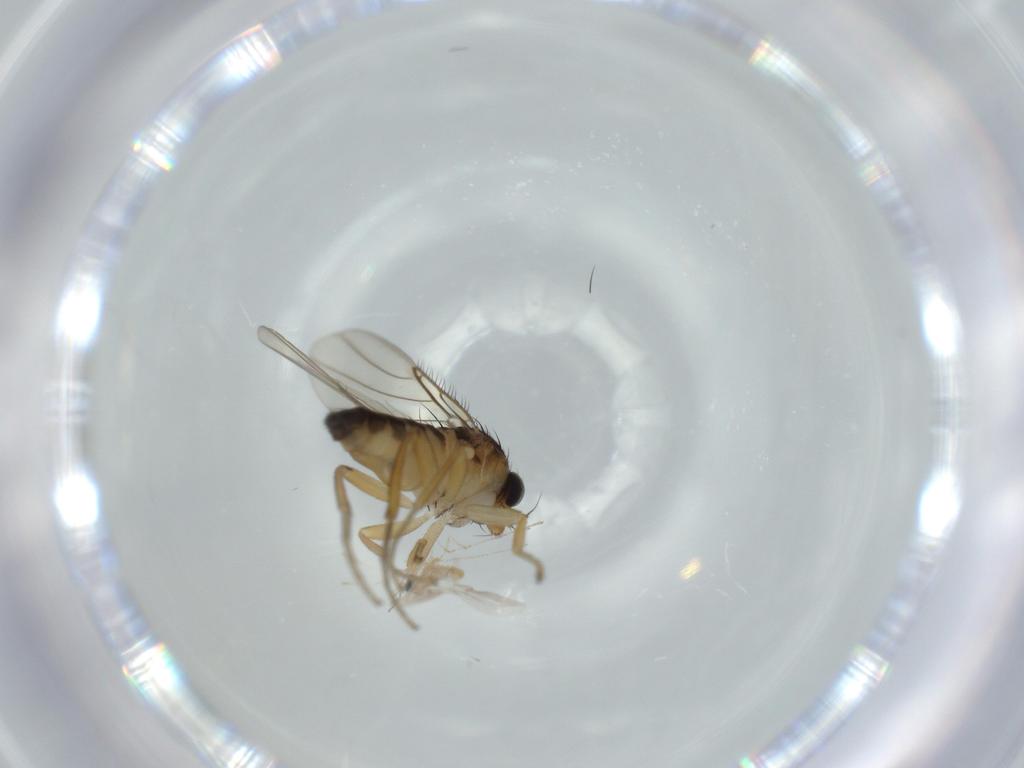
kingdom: Animalia
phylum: Arthropoda
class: Insecta
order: Diptera
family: Phoridae
